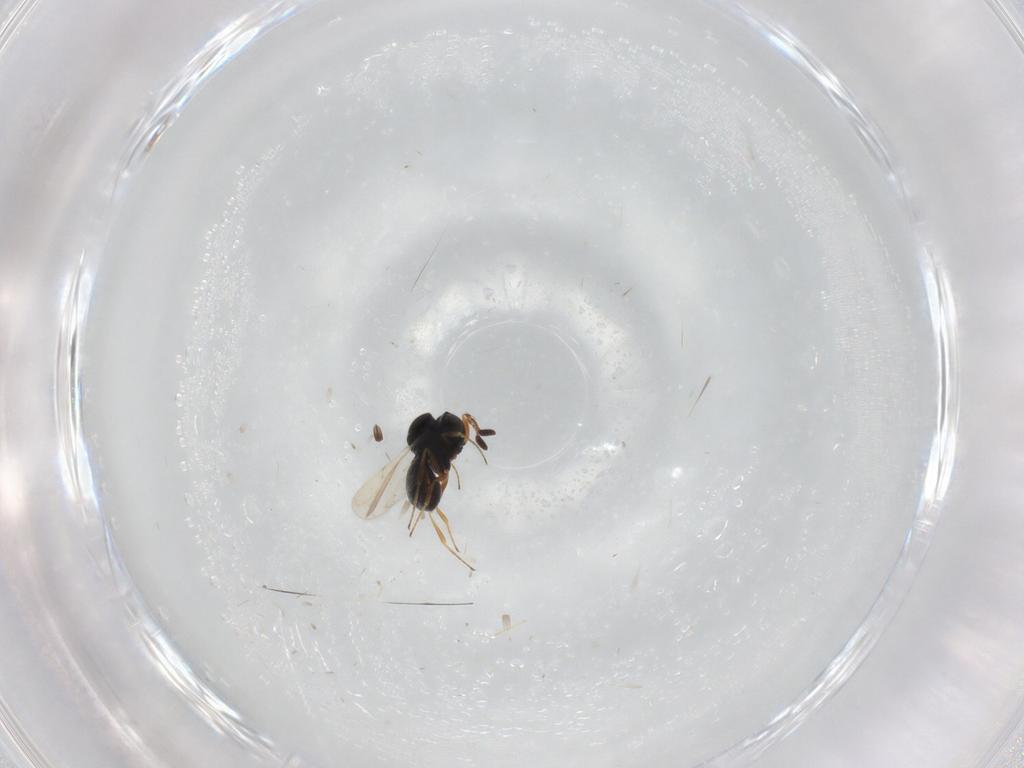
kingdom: Animalia
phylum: Arthropoda
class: Insecta
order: Hymenoptera
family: Scelionidae
